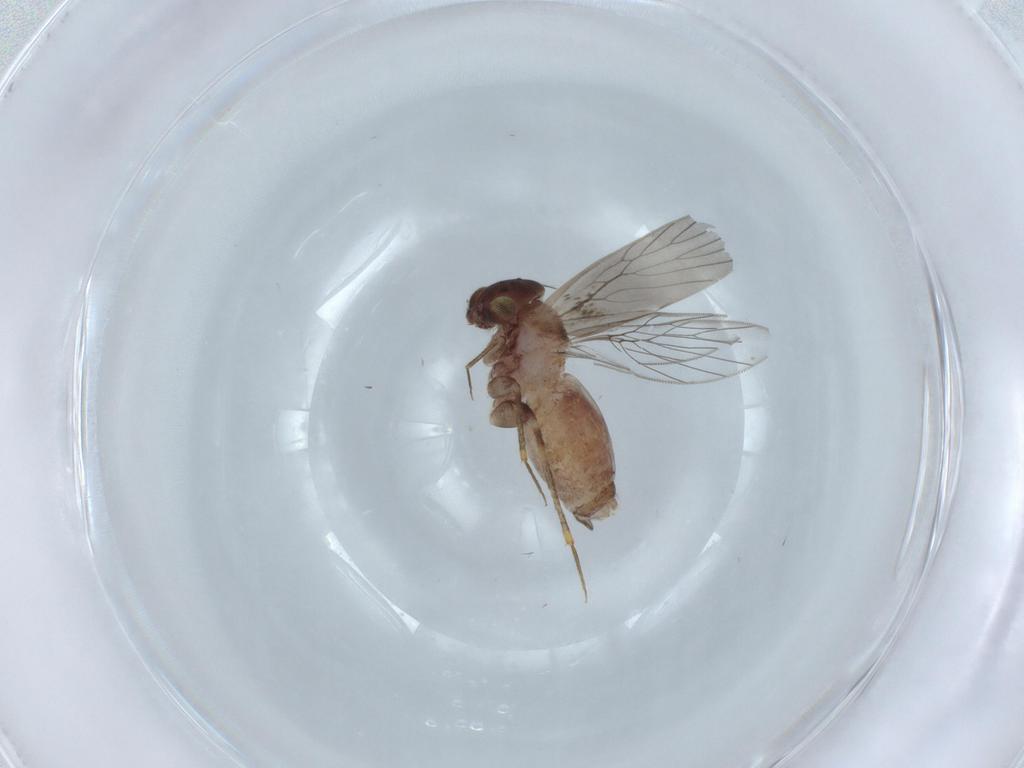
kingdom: Animalia
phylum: Arthropoda
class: Insecta
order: Psocodea
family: Lepidopsocidae
